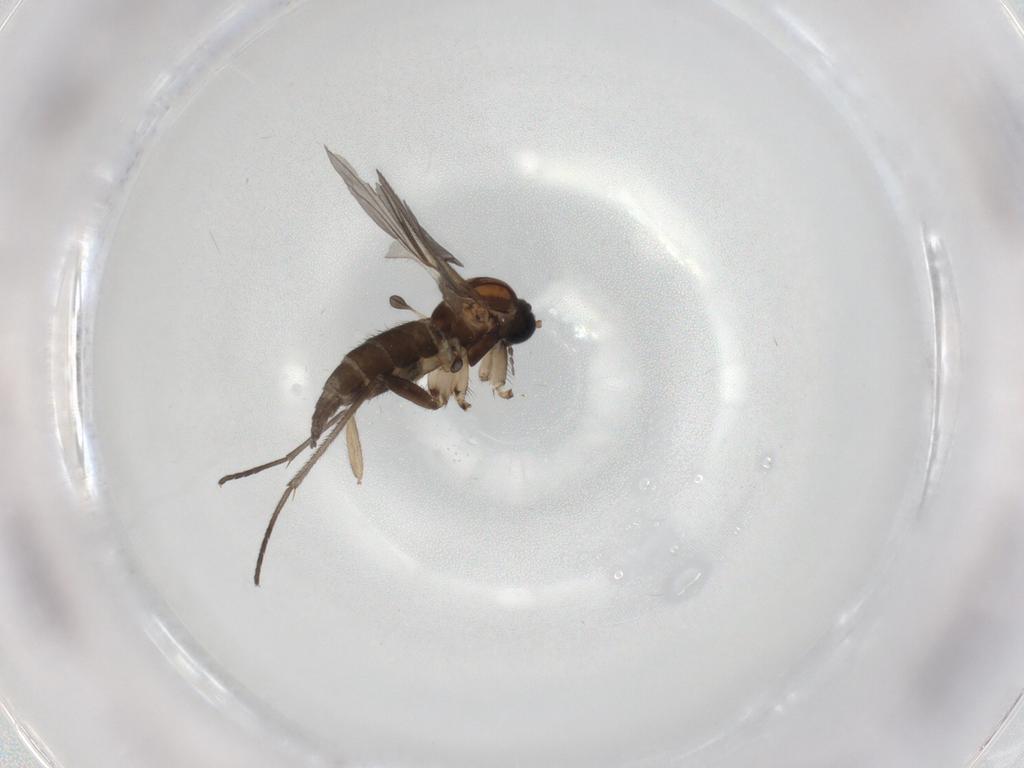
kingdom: Animalia
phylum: Arthropoda
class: Insecta
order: Diptera
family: Sciaridae
